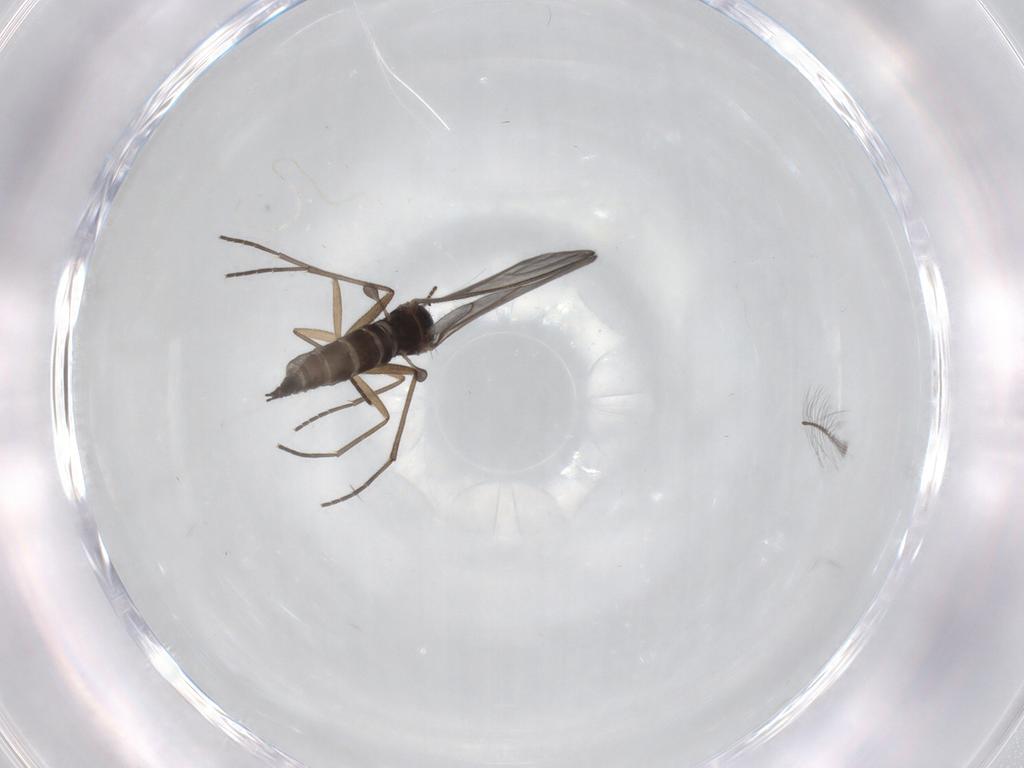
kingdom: Animalia
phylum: Arthropoda
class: Insecta
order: Diptera
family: Sciaridae
